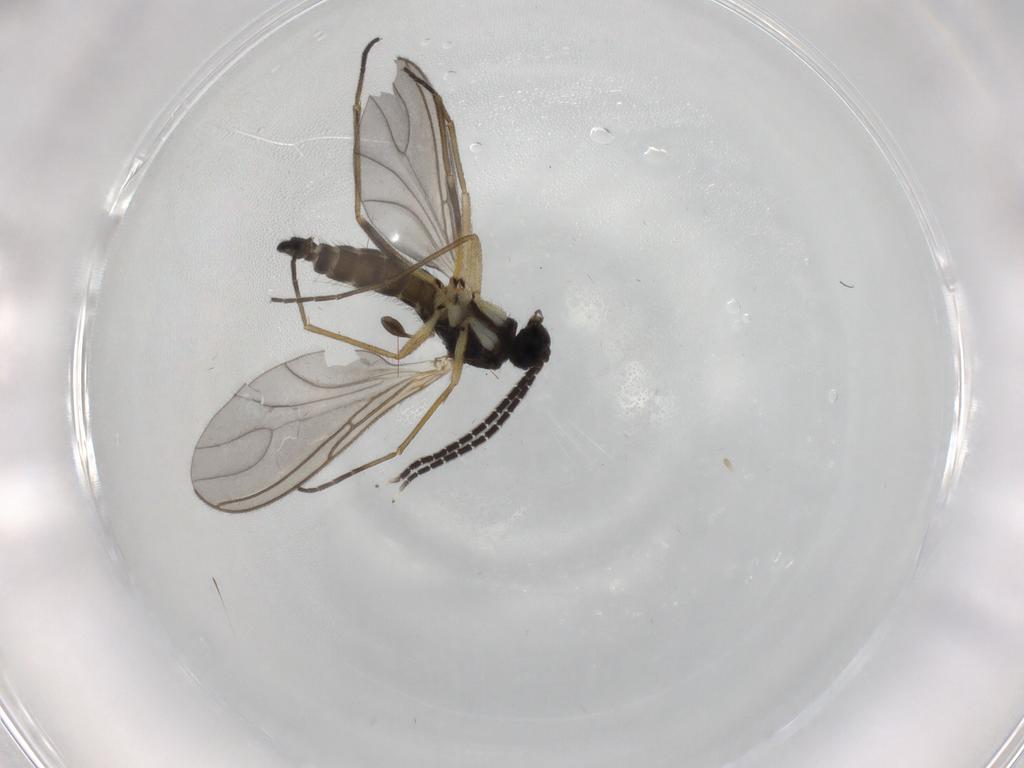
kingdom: Animalia
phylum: Arthropoda
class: Insecta
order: Diptera
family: Sciaridae
